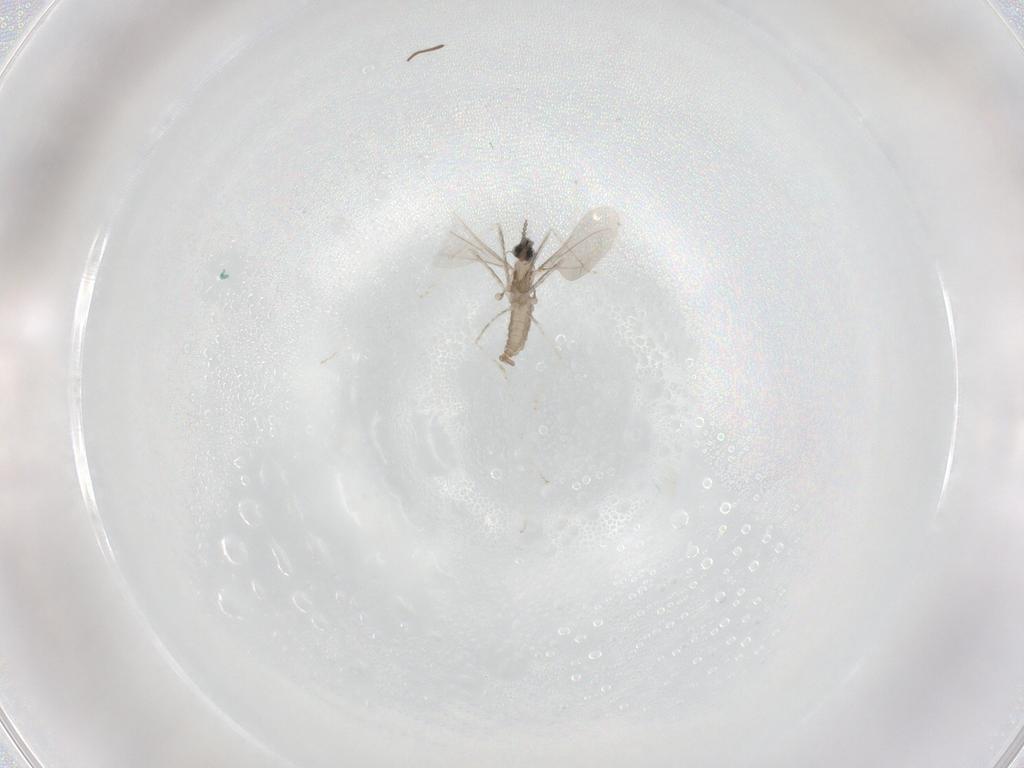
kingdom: Animalia
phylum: Arthropoda
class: Insecta
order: Diptera
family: Cecidomyiidae
